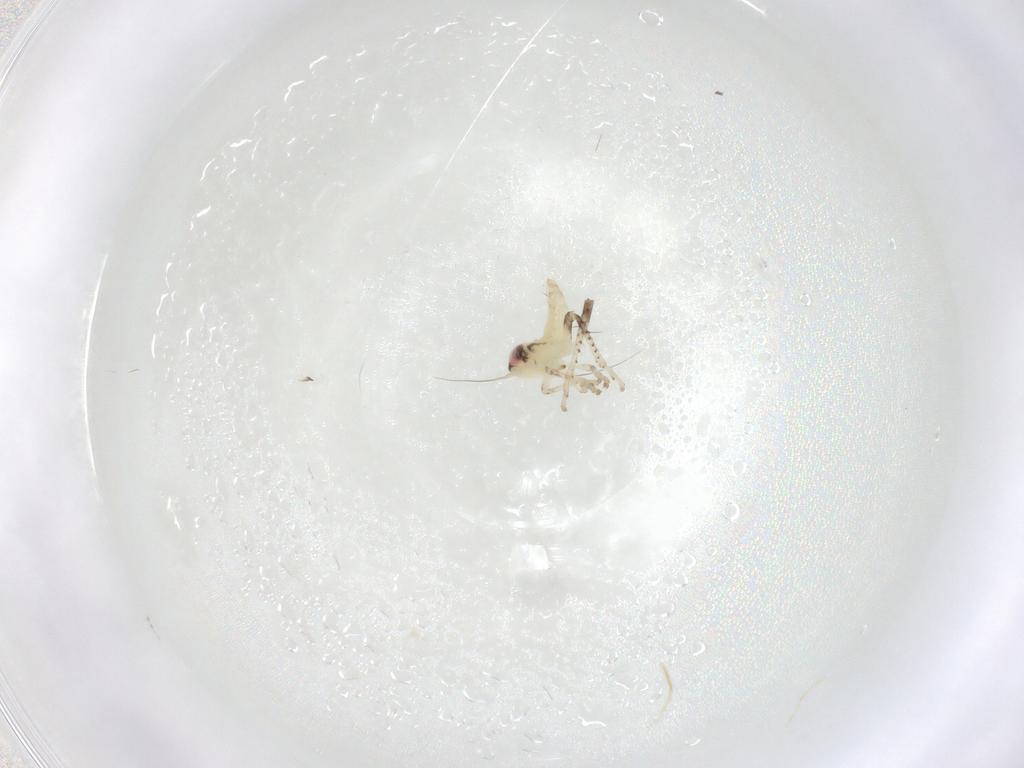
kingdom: Animalia
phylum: Arthropoda
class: Insecta
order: Hemiptera
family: Cicadellidae
